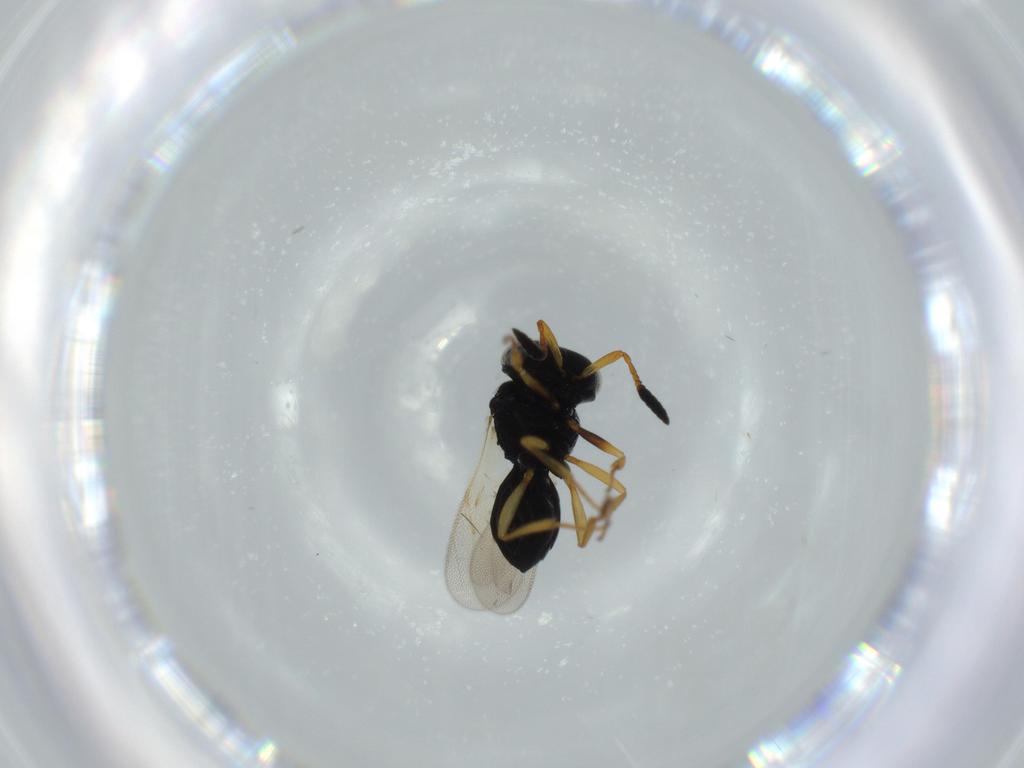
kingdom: Animalia
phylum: Arthropoda
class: Insecta
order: Hymenoptera
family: Scelionidae
